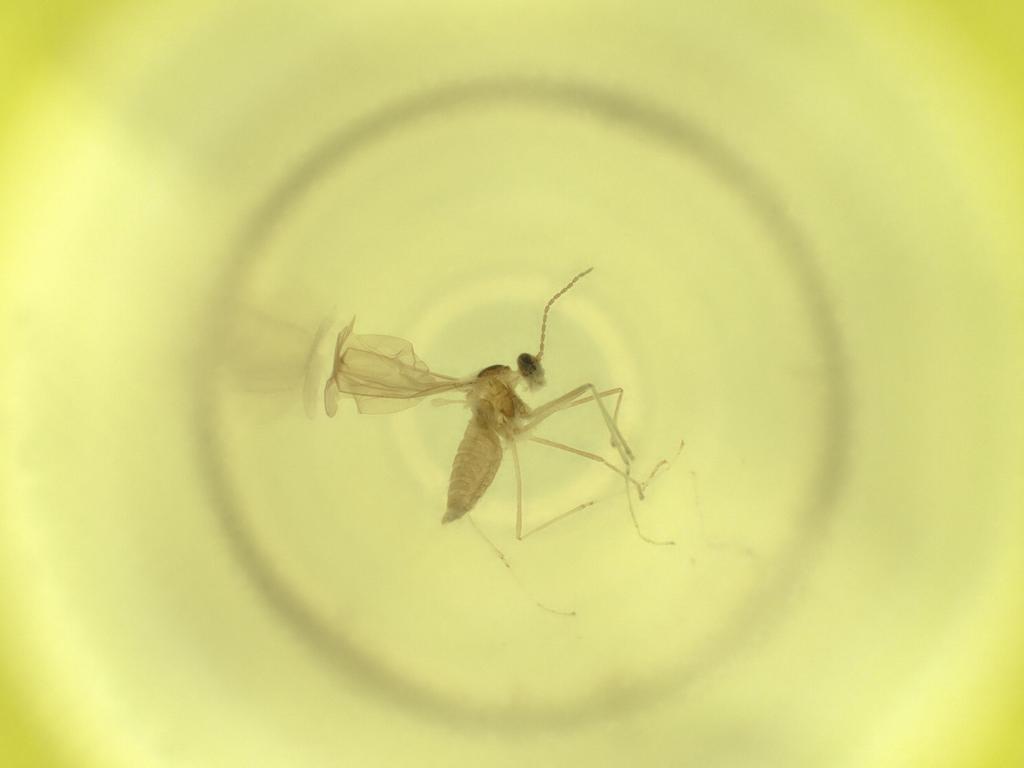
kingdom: Animalia
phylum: Arthropoda
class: Insecta
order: Diptera
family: Cecidomyiidae
